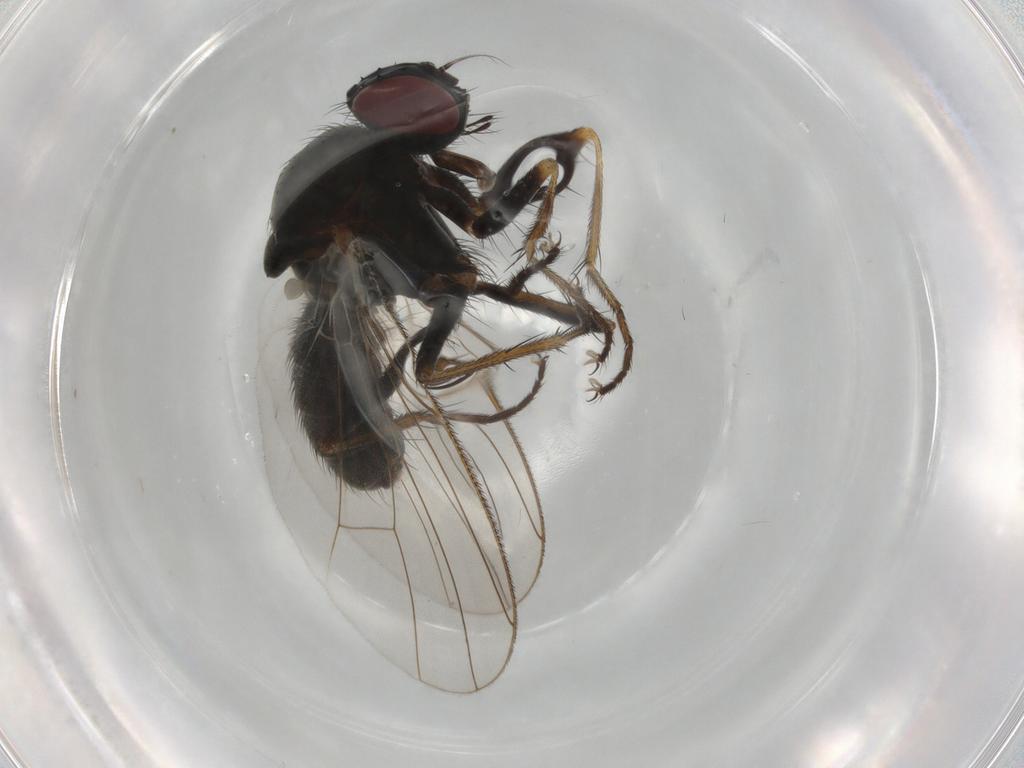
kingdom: Animalia
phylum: Arthropoda
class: Insecta
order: Diptera
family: Muscidae
